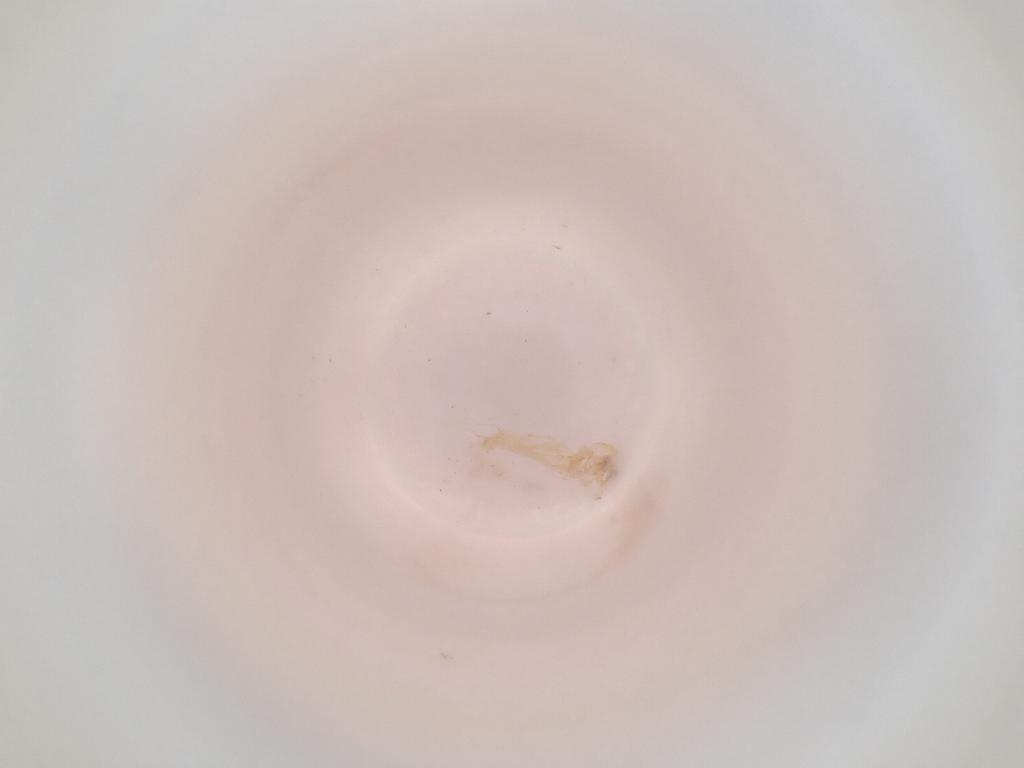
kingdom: Animalia
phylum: Arthropoda
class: Insecta
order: Diptera
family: Cecidomyiidae
